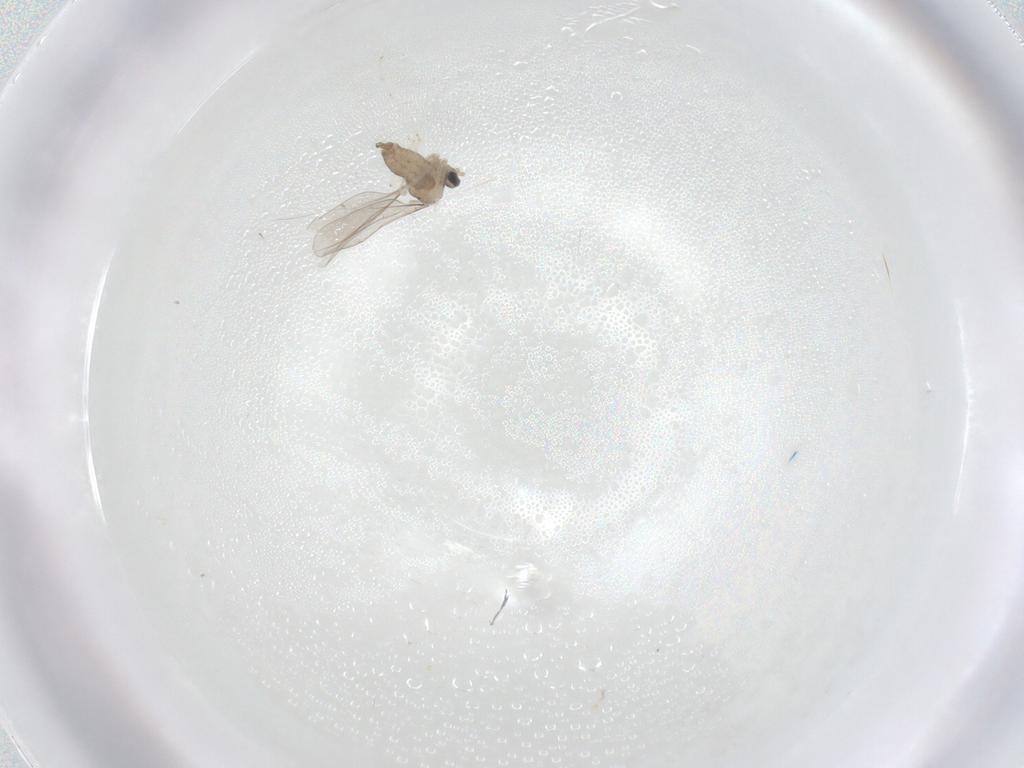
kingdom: Animalia
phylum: Arthropoda
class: Insecta
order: Diptera
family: Cecidomyiidae
